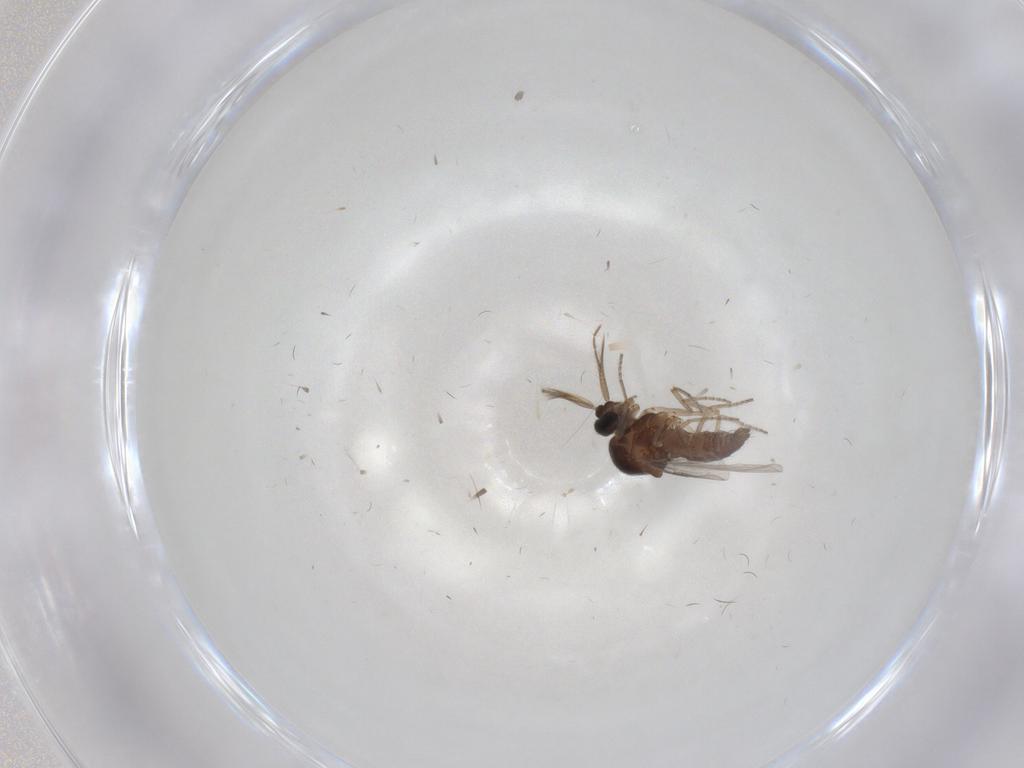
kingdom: Animalia
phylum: Arthropoda
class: Insecta
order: Diptera
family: Ceratopogonidae
